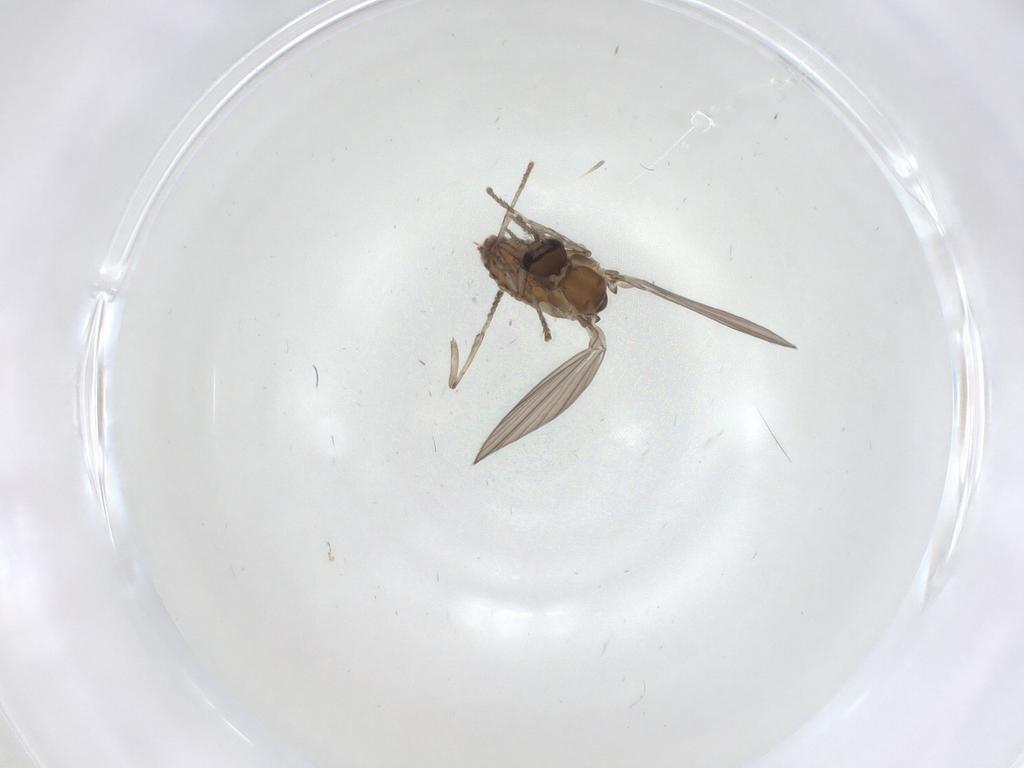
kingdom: Animalia
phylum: Arthropoda
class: Insecta
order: Diptera
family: Psychodidae
